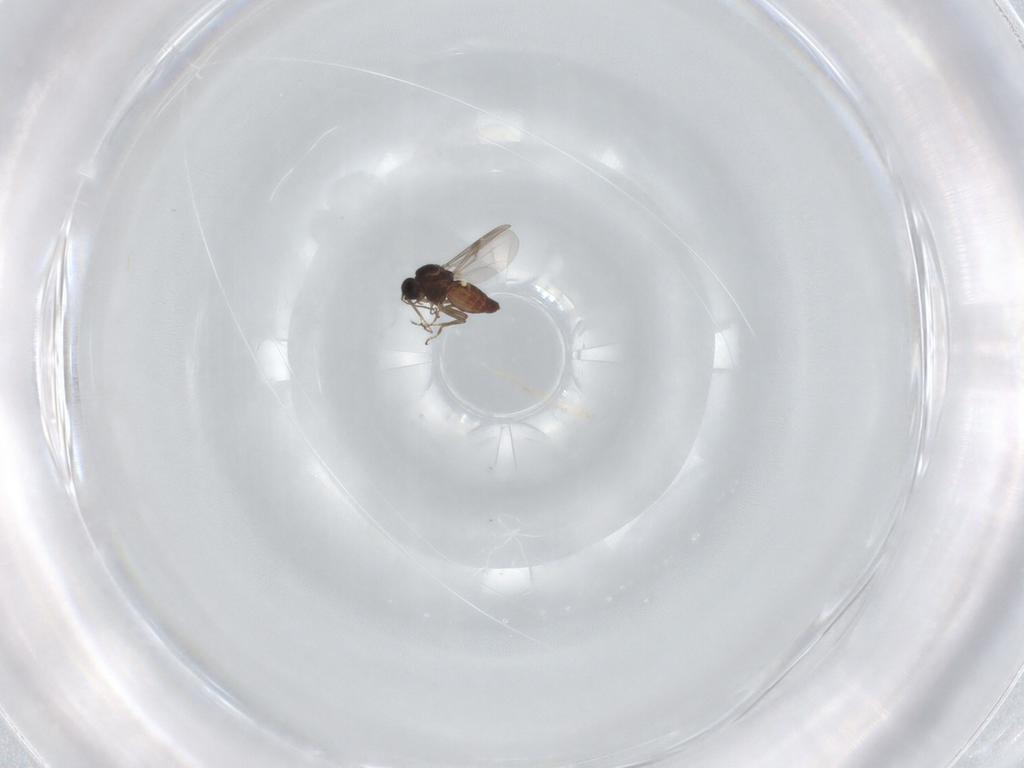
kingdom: Animalia
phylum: Arthropoda
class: Insecta
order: Diptera
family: Ceratopogonidae
